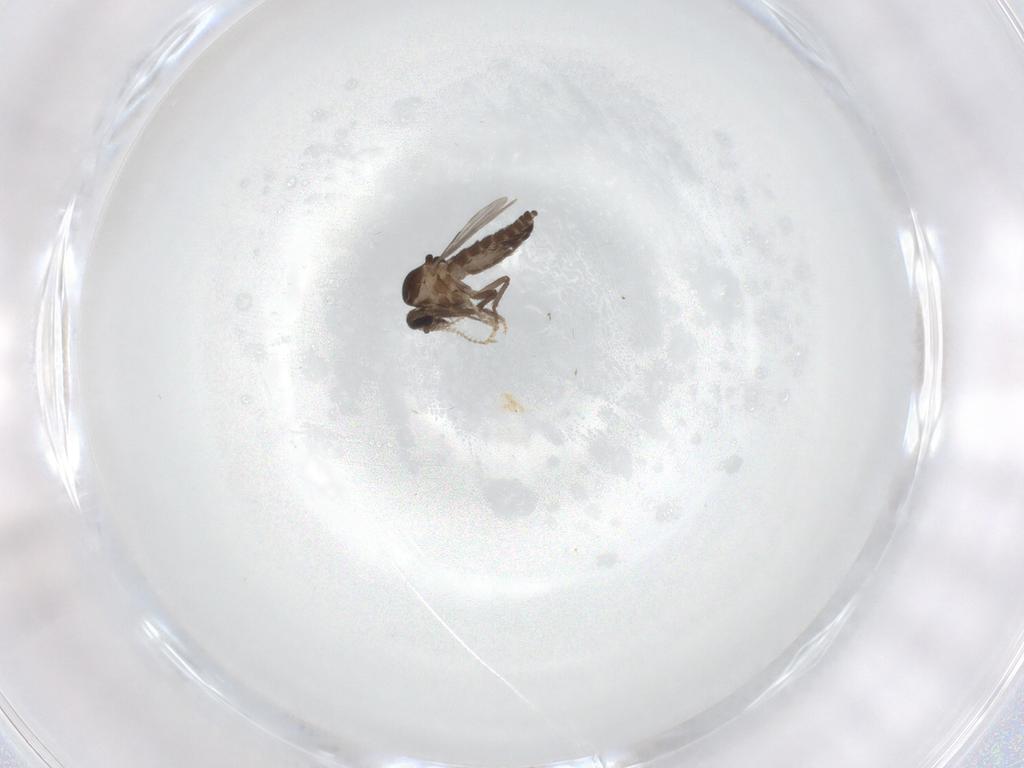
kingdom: Animalia
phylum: Arthropoda
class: Insecta
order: Diptera
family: Ceratopogonidae
